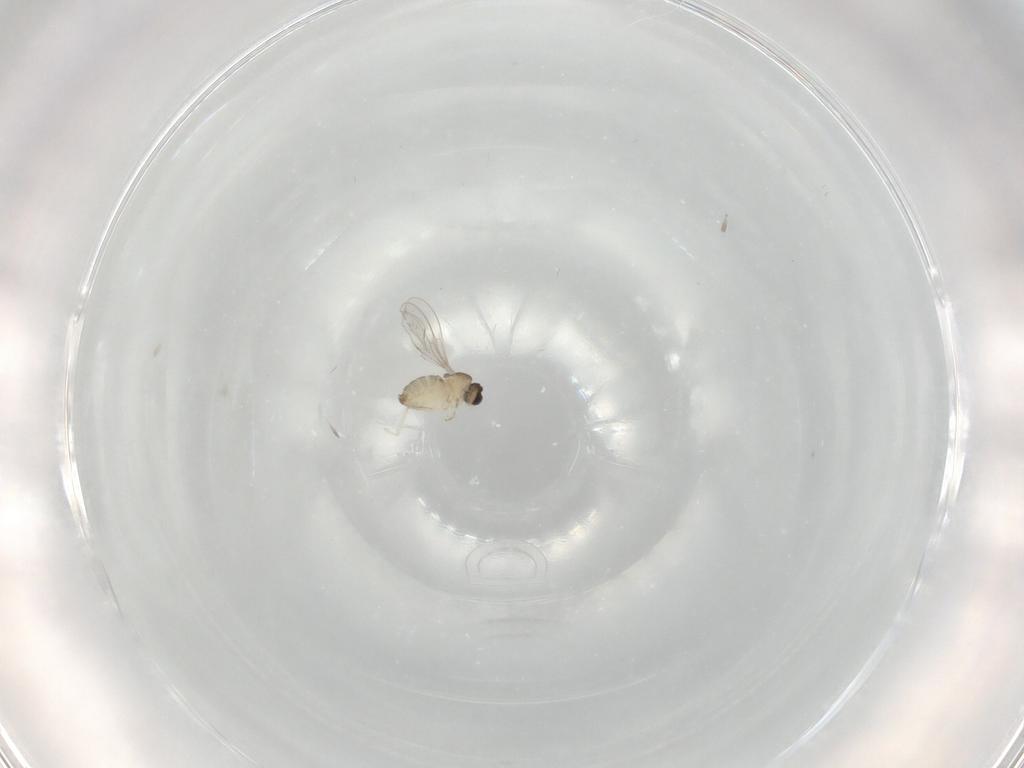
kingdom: Animalia
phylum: Arthropoda
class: Insecta
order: Diptera
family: Cecidomyiidae
